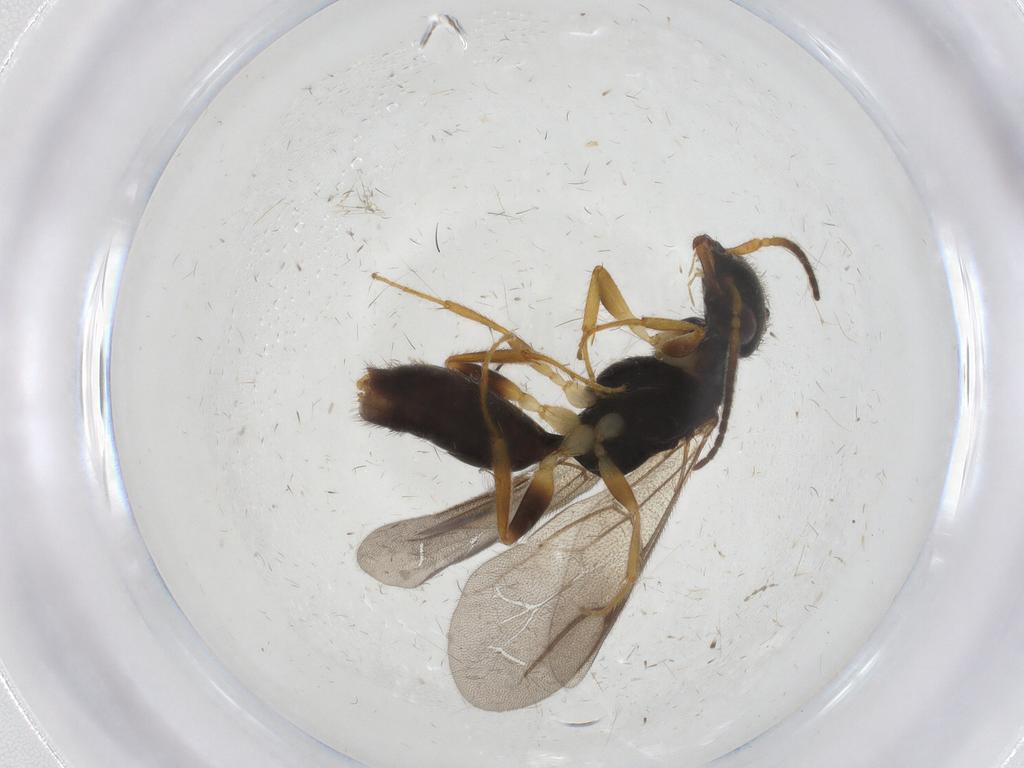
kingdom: Animalia
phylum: Arthropoda
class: Insecta
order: Hymenoptera
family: Bethylidae
